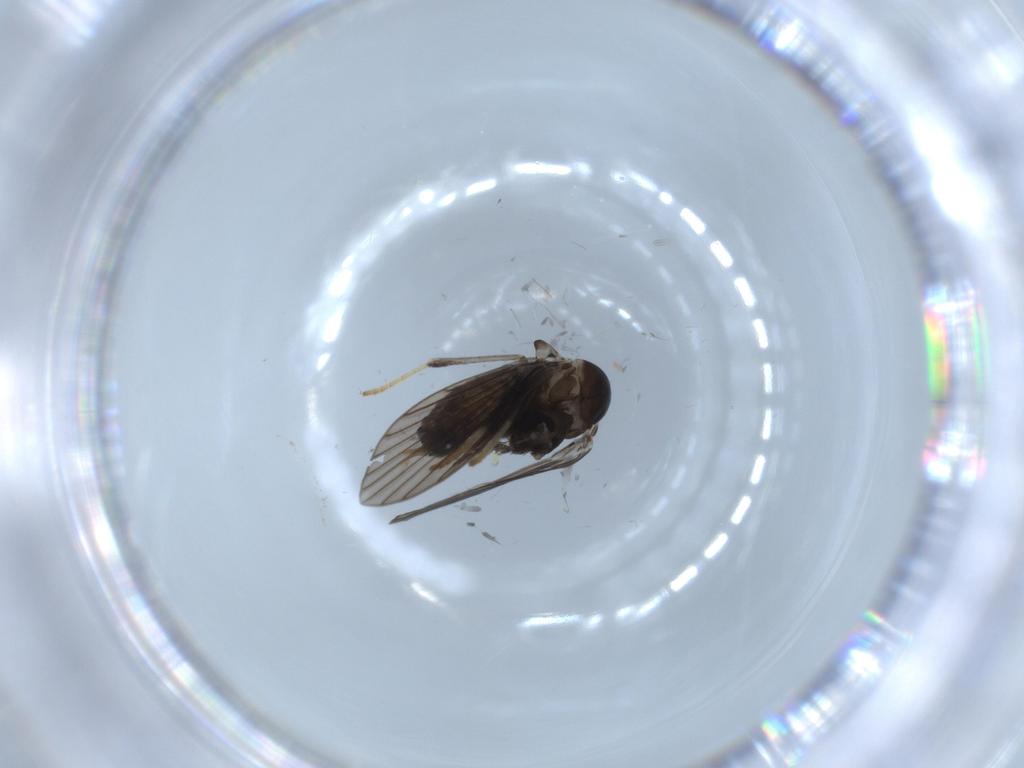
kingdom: Animalia
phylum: Arthropoda
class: Insecta
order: Diptera
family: Psychodidae
